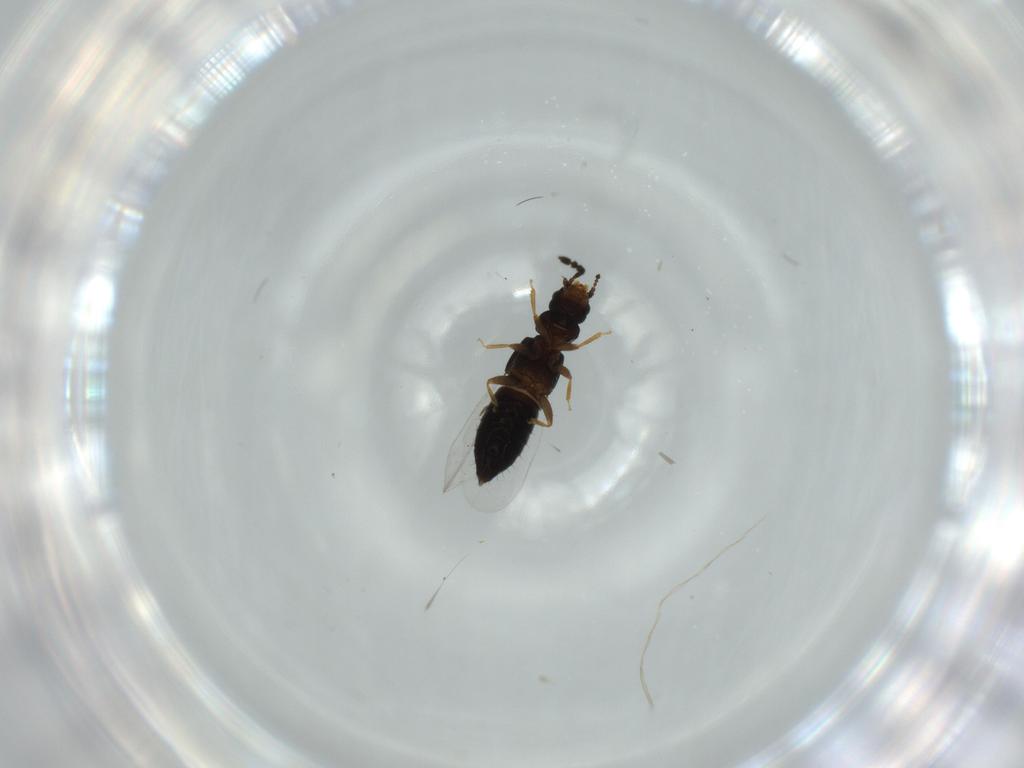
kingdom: Animalia
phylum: Arthropoda
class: Insecta
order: Coleoptera
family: Staphylinidae
